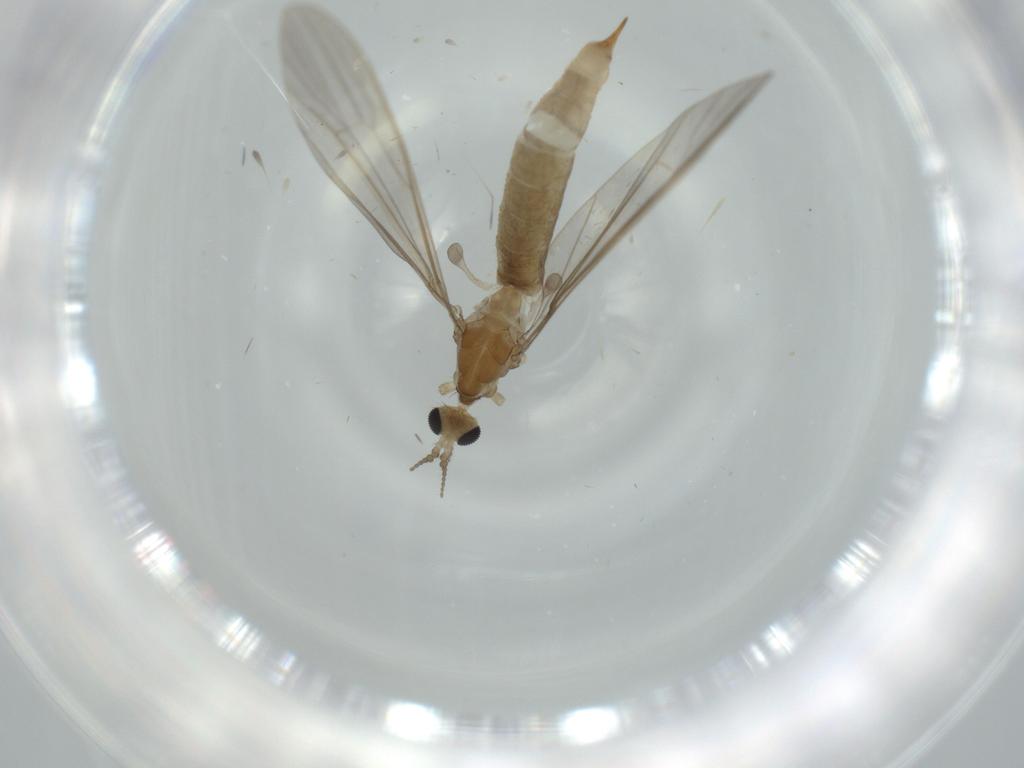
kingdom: Animalia
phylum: Arthropoda
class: Insecta
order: Diptera
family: Limoniidae
